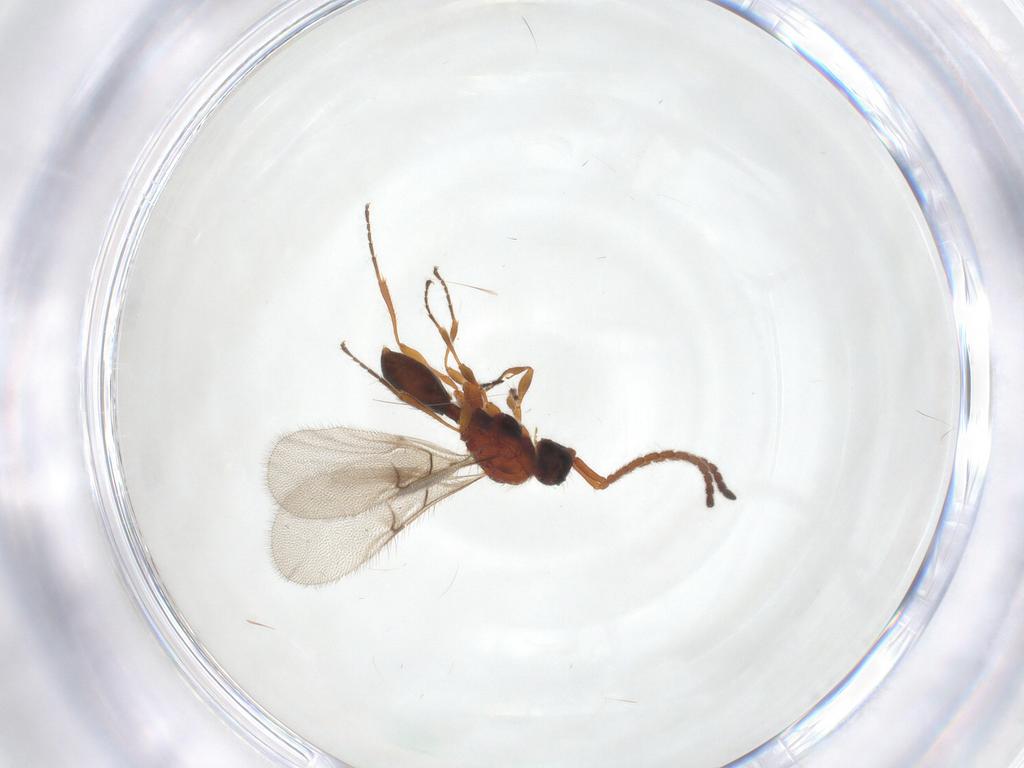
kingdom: Animalia
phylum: Arthropoda
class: Insecta
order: Hymenoptera
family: Diapriidae
